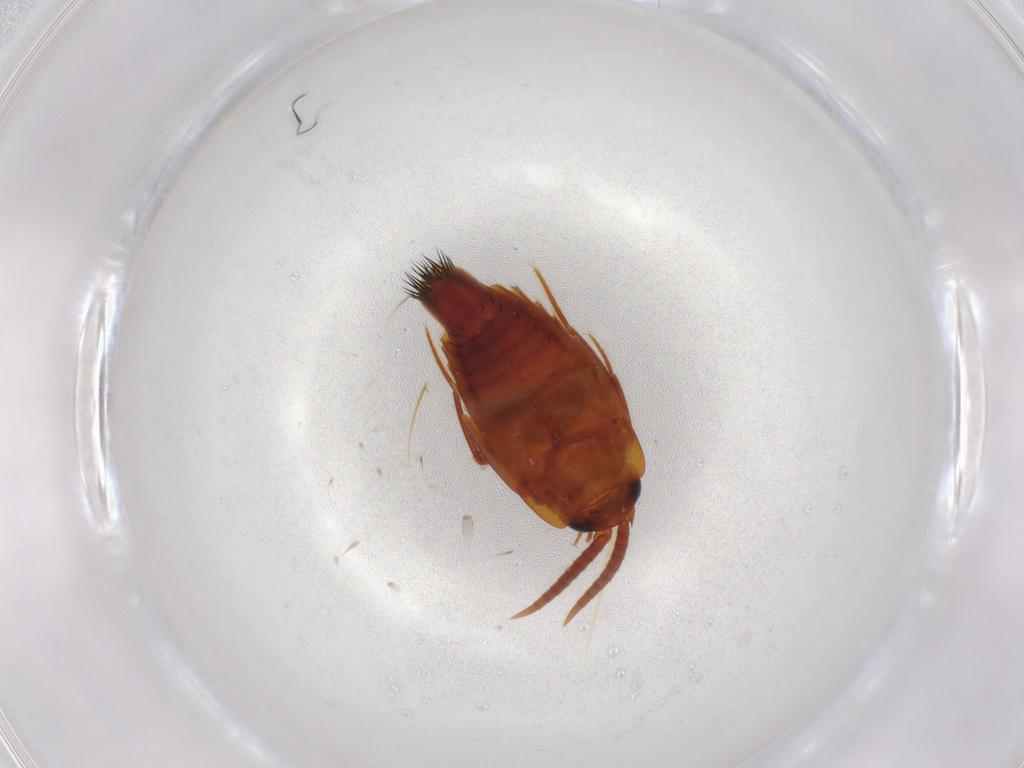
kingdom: Animalia
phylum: Arthropoda
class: Insecta
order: Coleoptera
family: Staphylinidae
